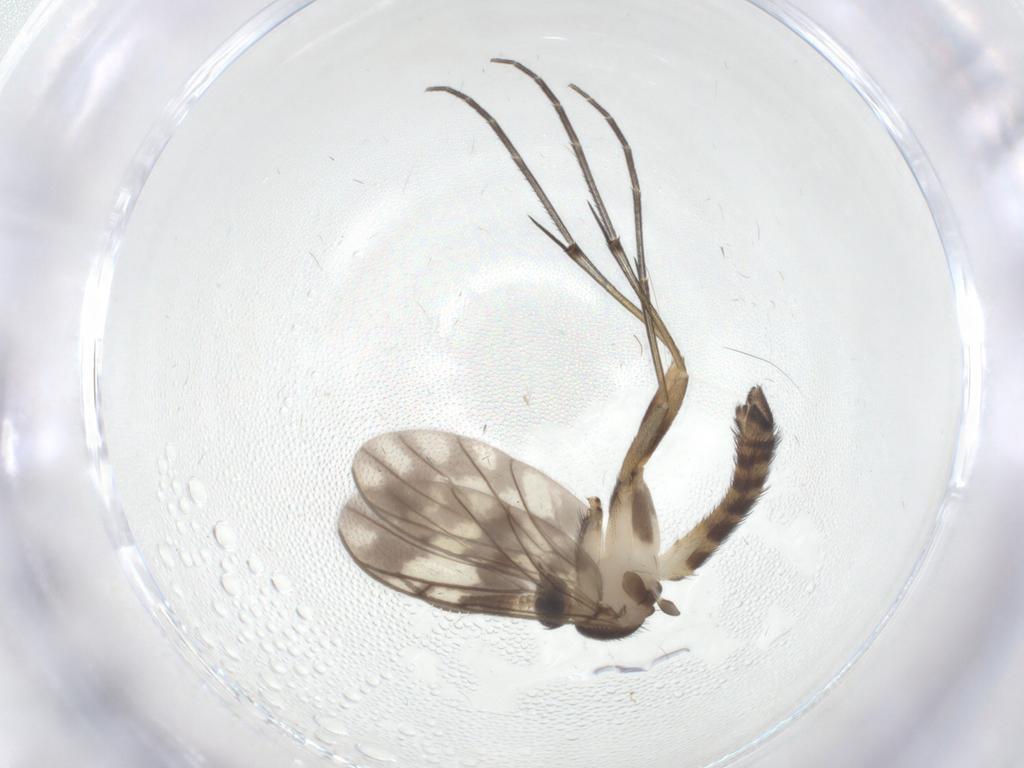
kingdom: Animalia
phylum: Arthropoda
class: Insecta
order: Diptera
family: Keroplatidae
